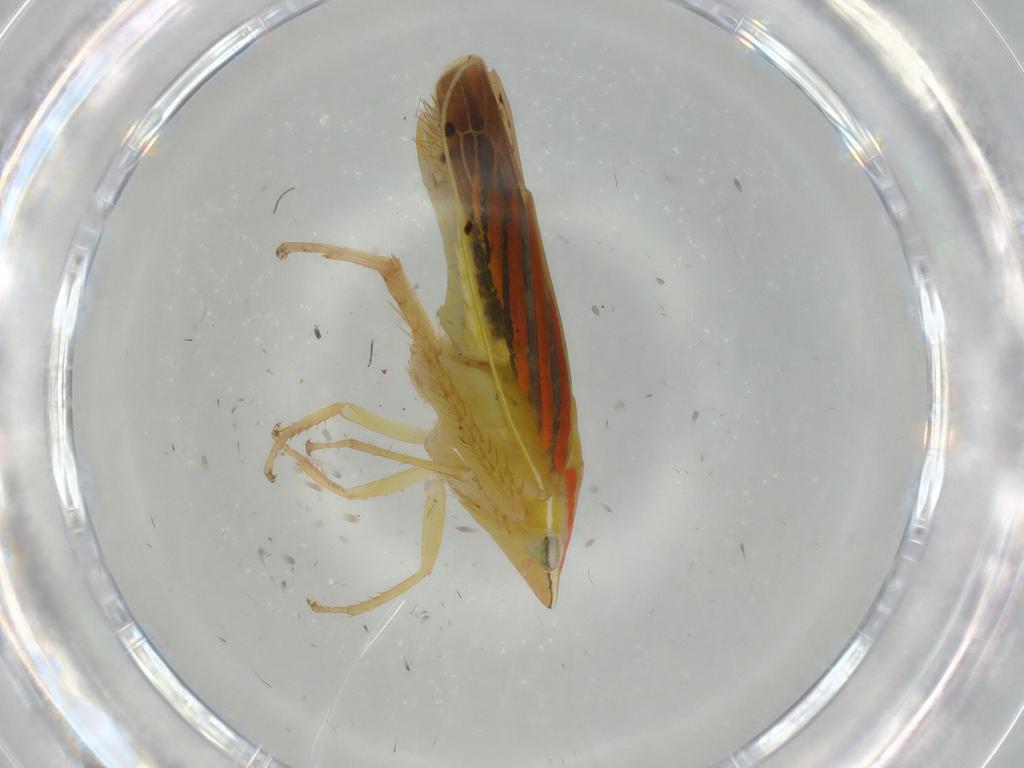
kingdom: Animalia
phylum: Arthropoda
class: Insecta
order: Hemiptera
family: Cicadellidae
